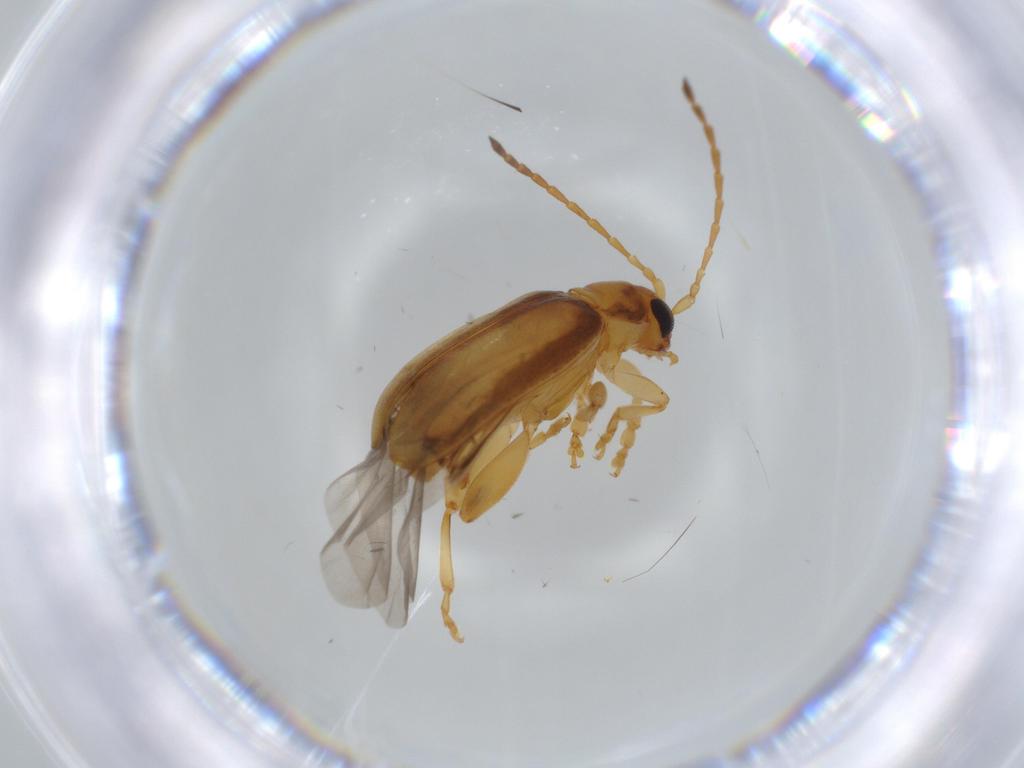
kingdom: Animalia
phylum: Arthropoda
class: Insecta
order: Coleoptera
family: Chrysomelidae
